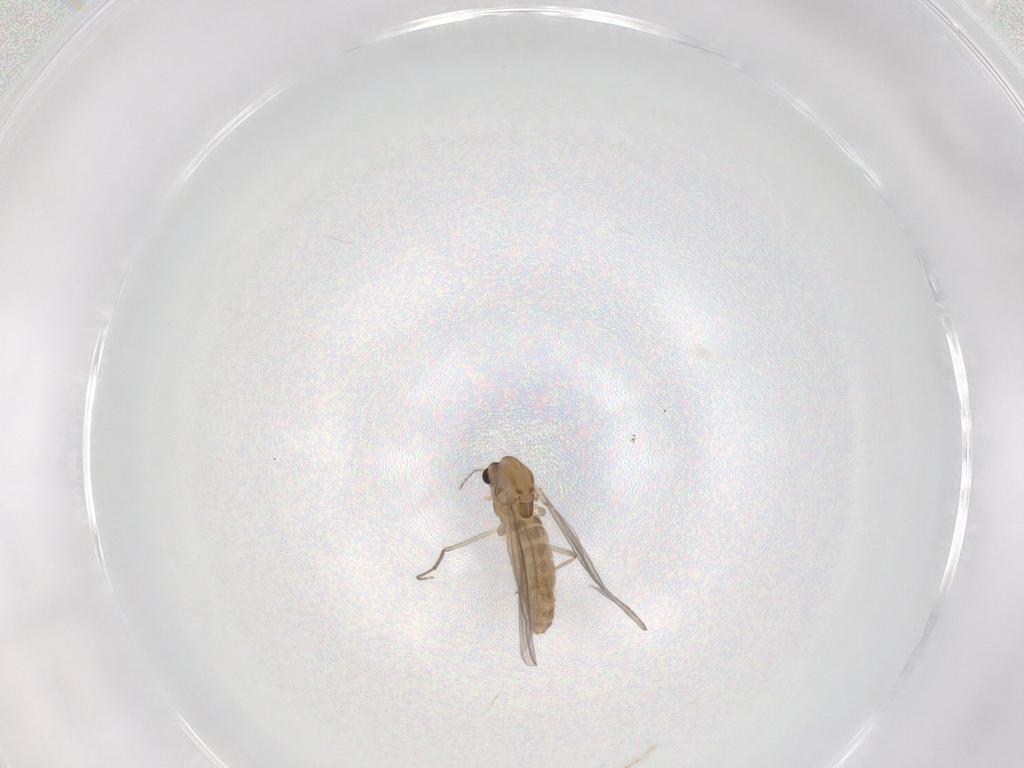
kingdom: Animalia
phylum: Arthropoda
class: Insecta
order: Diptera
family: Chironomidae
